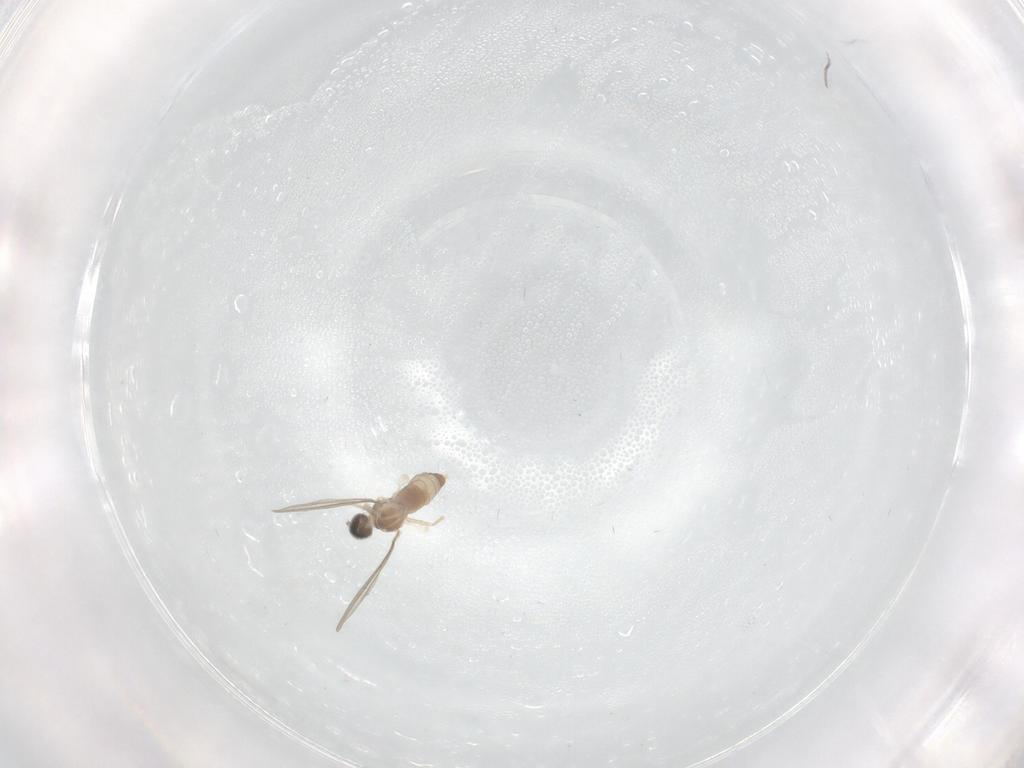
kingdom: Animalia
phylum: Arthropoda
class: Insecta
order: Diptera
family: Cecidomyiidae
